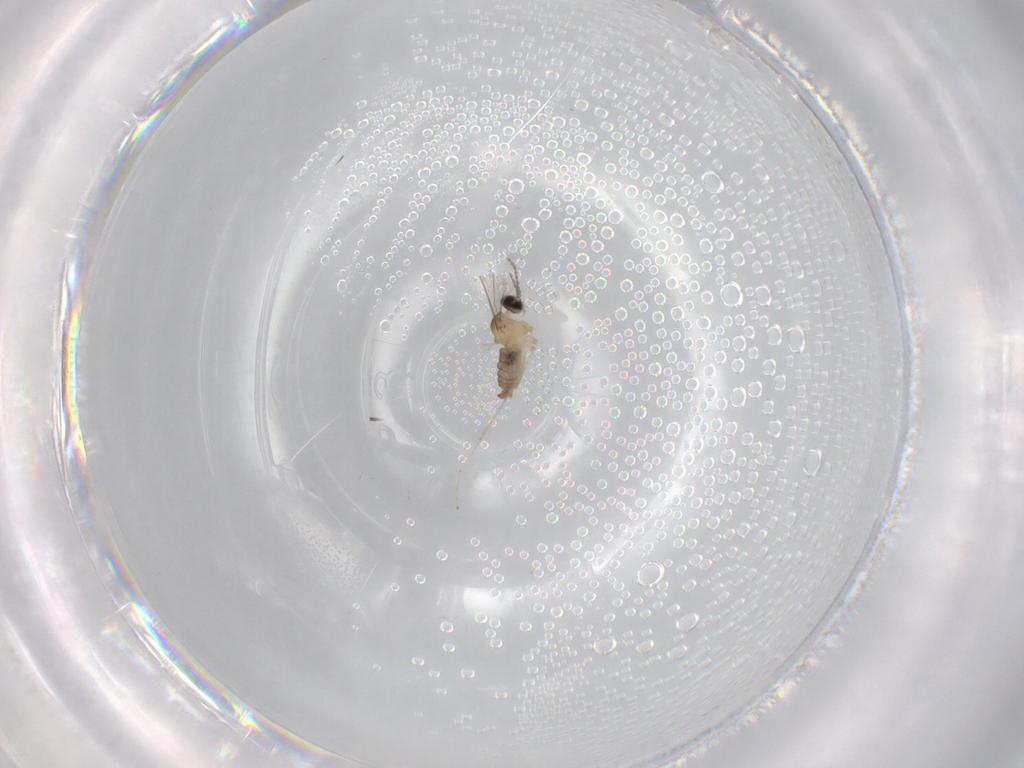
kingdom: Animalia
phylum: Arthropoda
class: Insecta
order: Diptera
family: Cecidomyiidae
